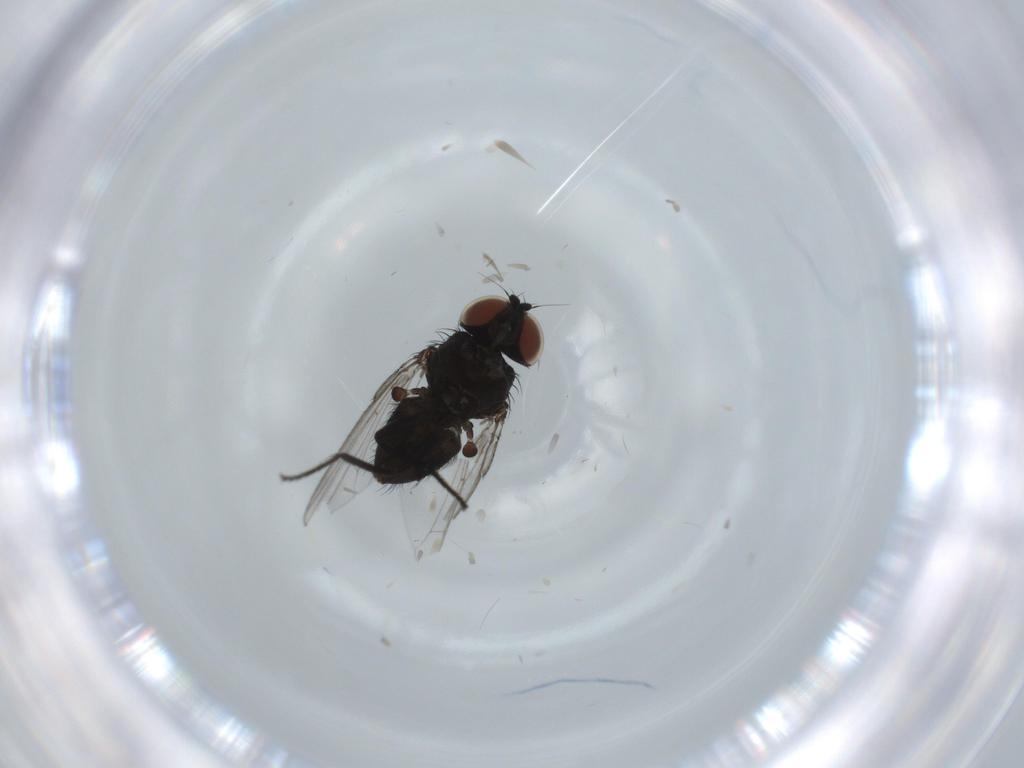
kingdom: Animalia
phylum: Arthropoda
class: Insecta
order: Diptera
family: Milichiidae
